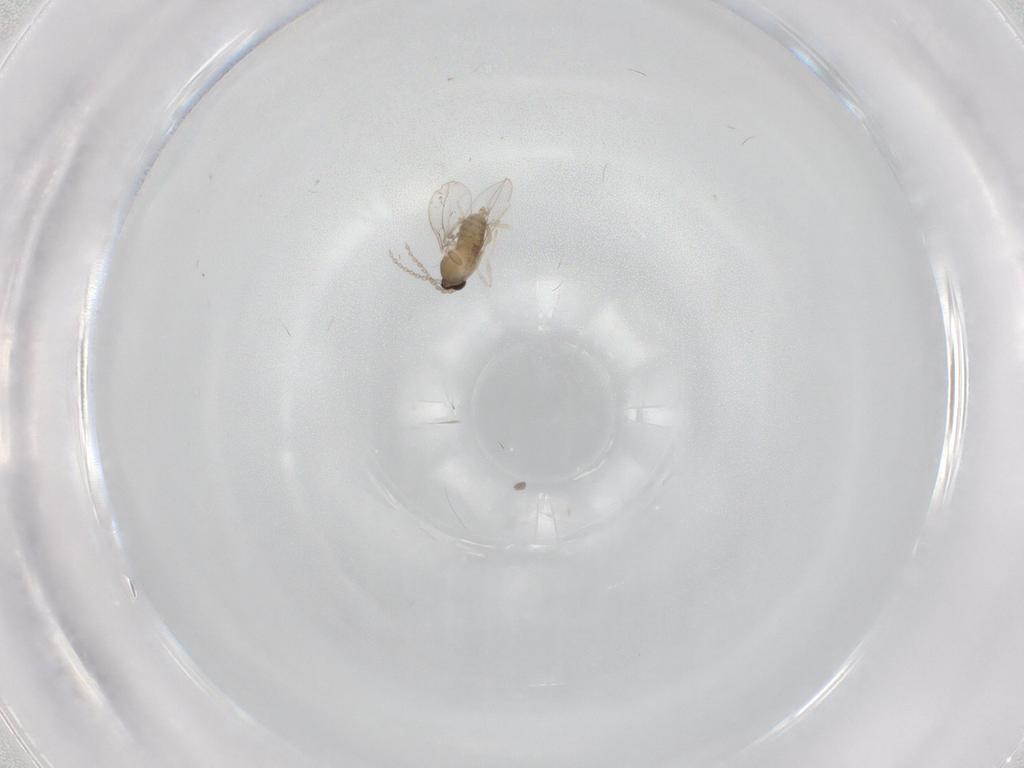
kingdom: Animalia
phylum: Arthropoda
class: Insecta
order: Diptera
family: Cecidomyiidae
